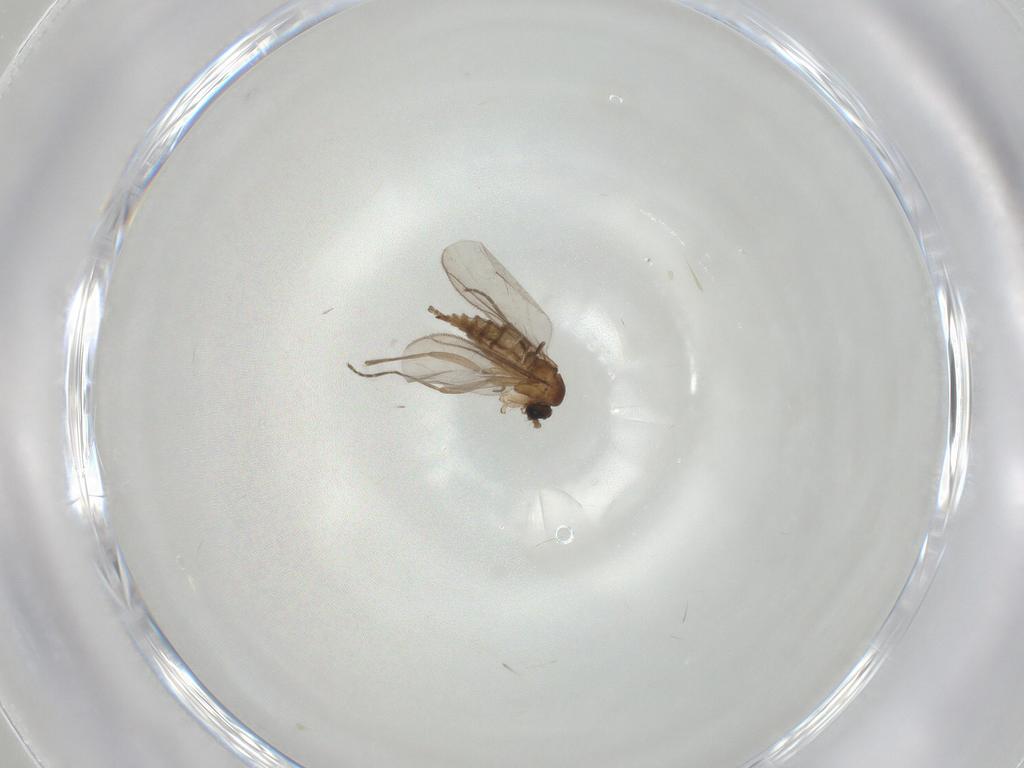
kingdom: Animalia
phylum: Arthropoda
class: Insecta
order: Diptera
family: Sciaridae
